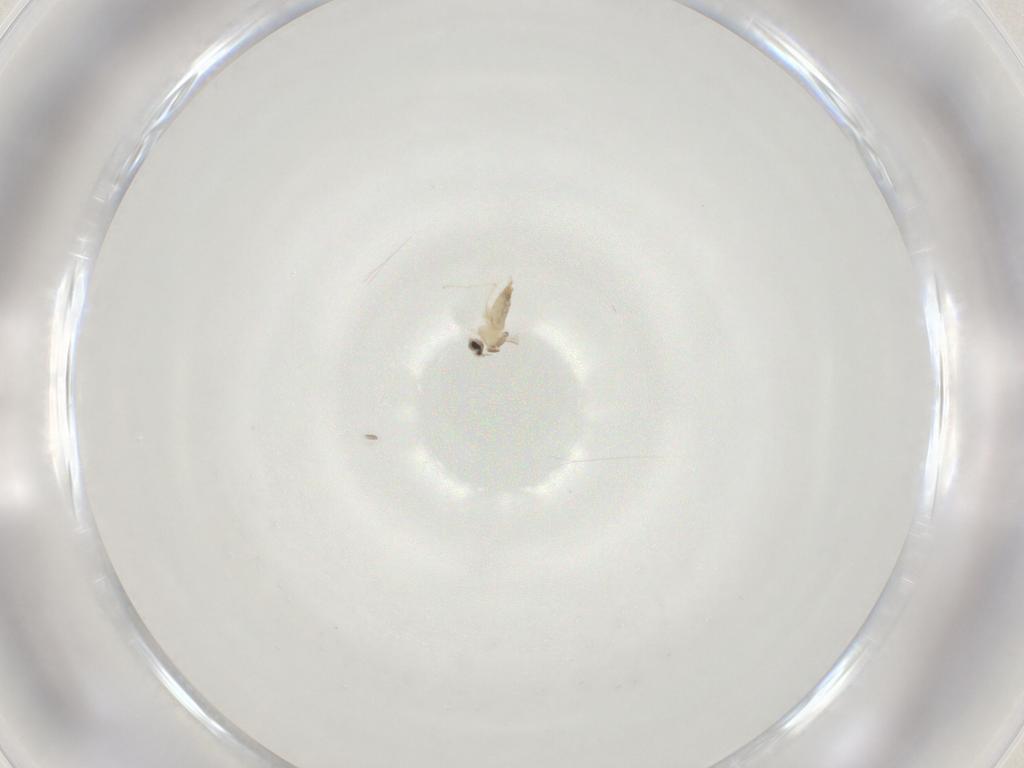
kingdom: Animalia
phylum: Arthropoda
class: Insecta
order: Diptera
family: Cecidomyiidae
